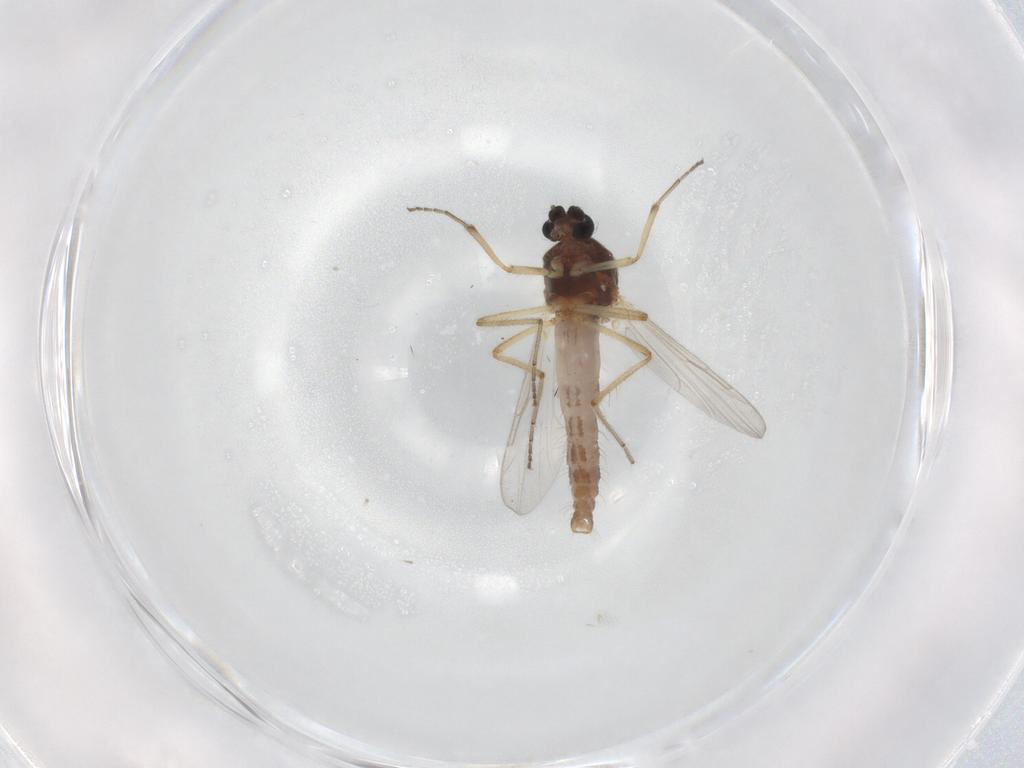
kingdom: Animalia
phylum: Arthropoda
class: Insecta
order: Diptera
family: Ceratopogonidae
